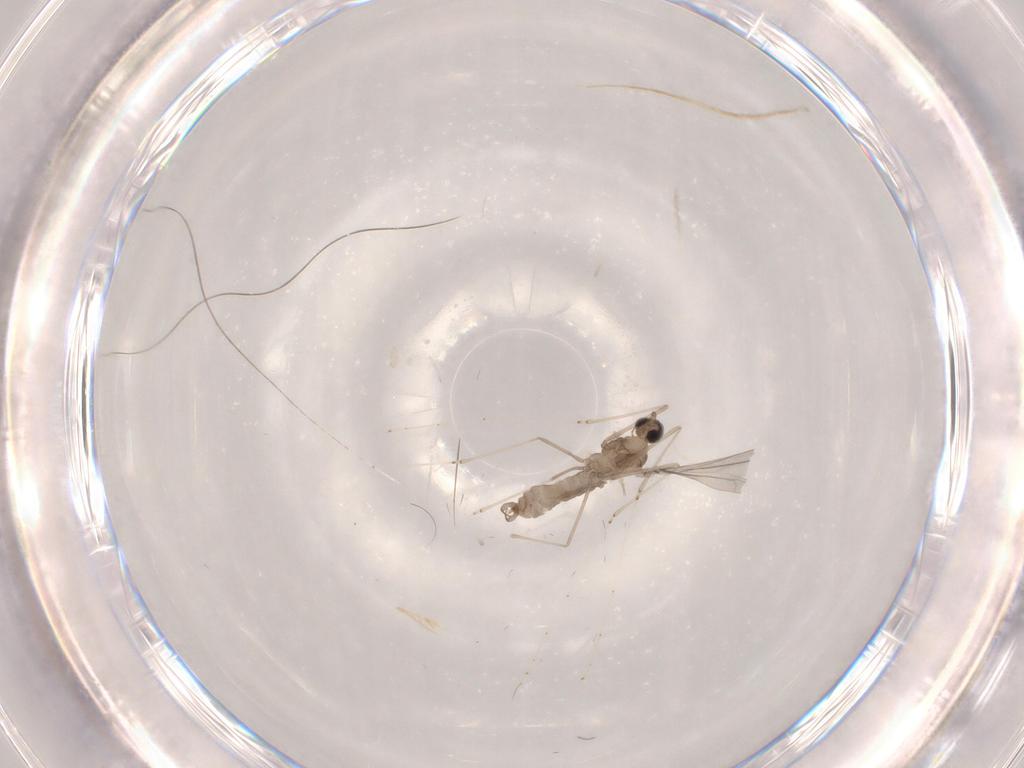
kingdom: Animalia
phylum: Arthropoda
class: Insecta
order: Diptera
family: Cecidomyiidae
